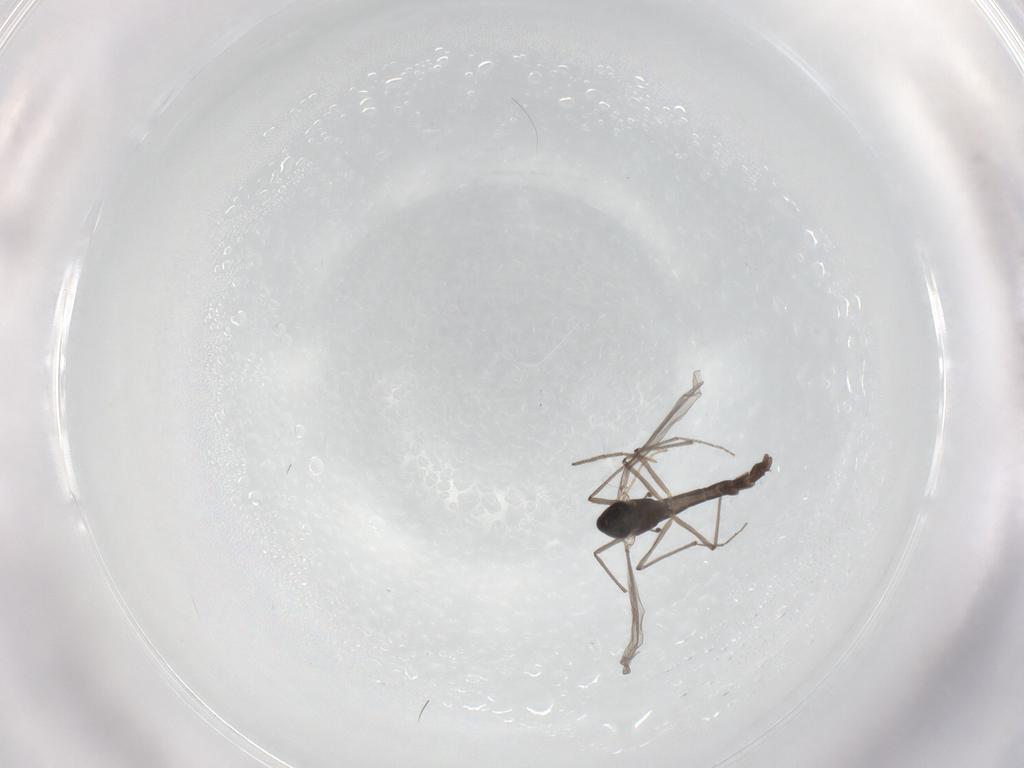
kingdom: Animalia
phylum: Arthropoda
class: Insecta
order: Diptera
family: Chironomidae
